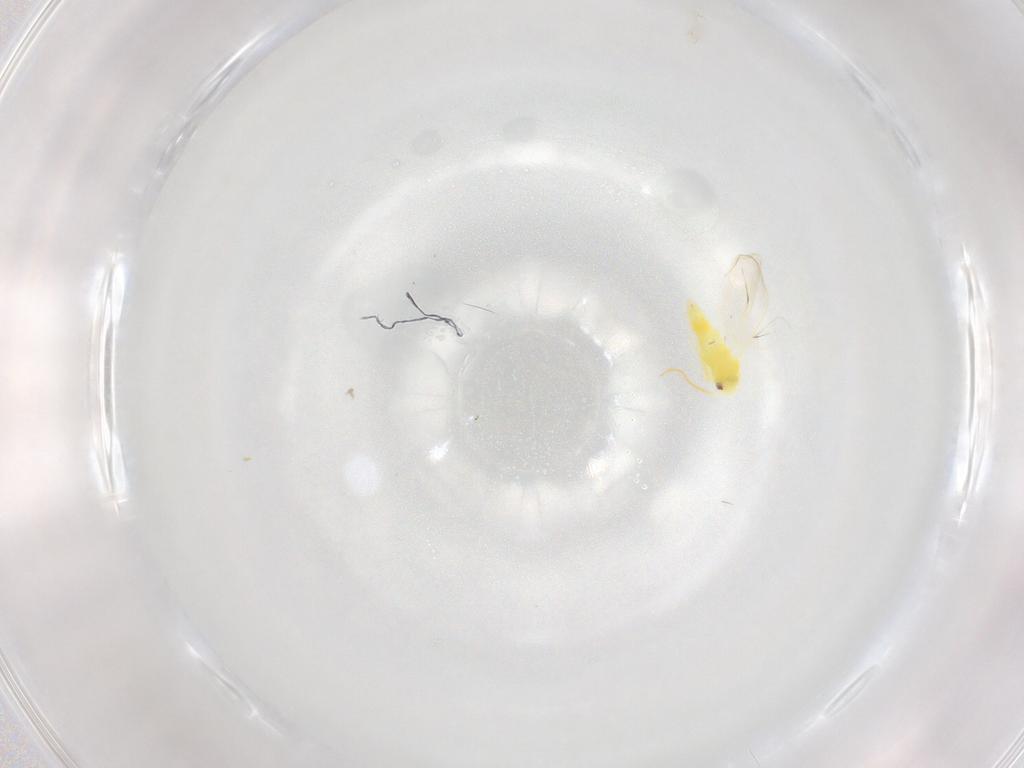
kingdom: Animalia
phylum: Arthropoda
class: Insecta
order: Hemiptera
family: Aleyrodidae
